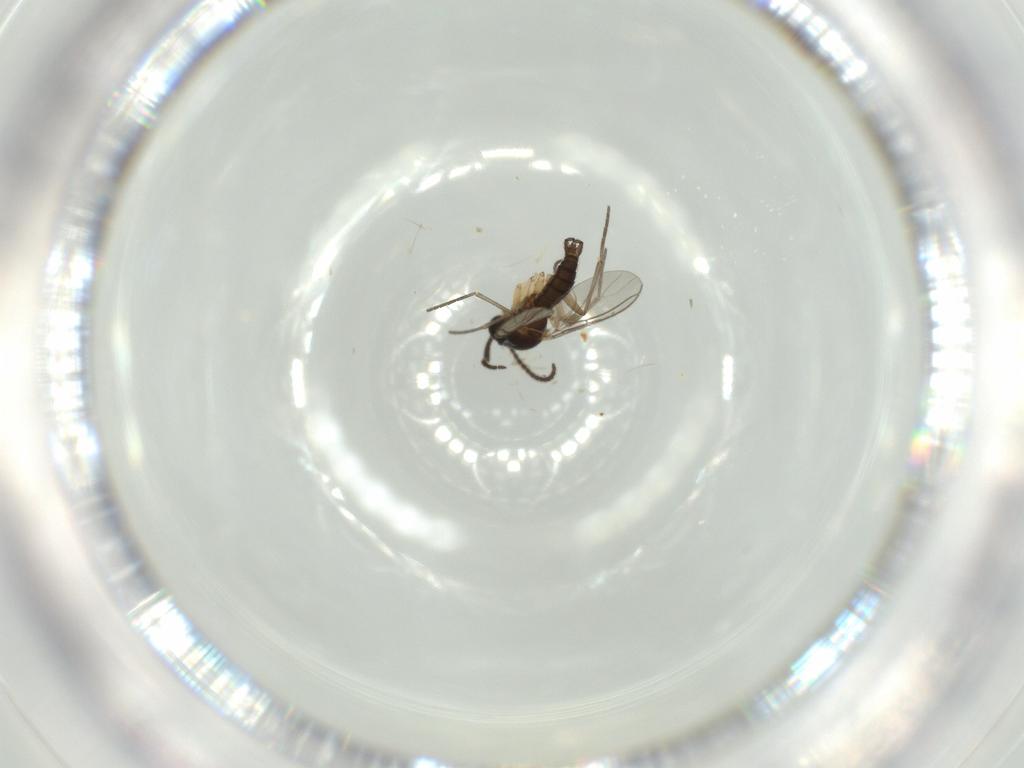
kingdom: Animalia
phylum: Arthropoda
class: Insecta
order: Diptera
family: Sciaridae
